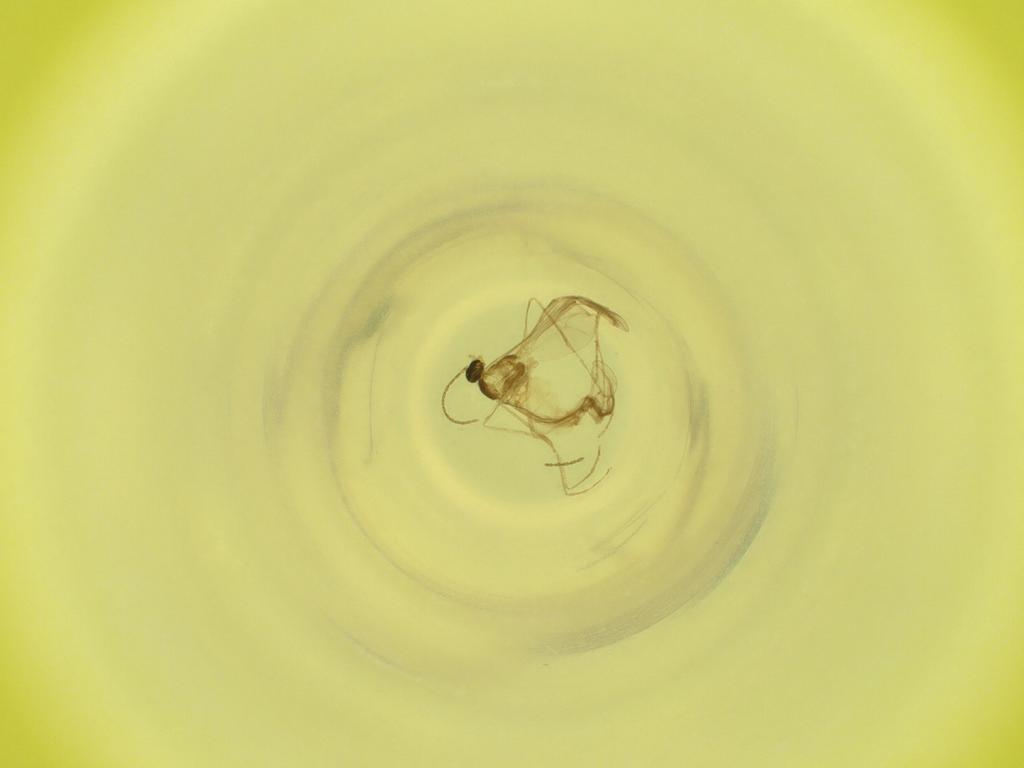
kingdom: Animalia
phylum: Arthropoda
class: Insecta
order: Diptera
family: Cecidomyiidae
